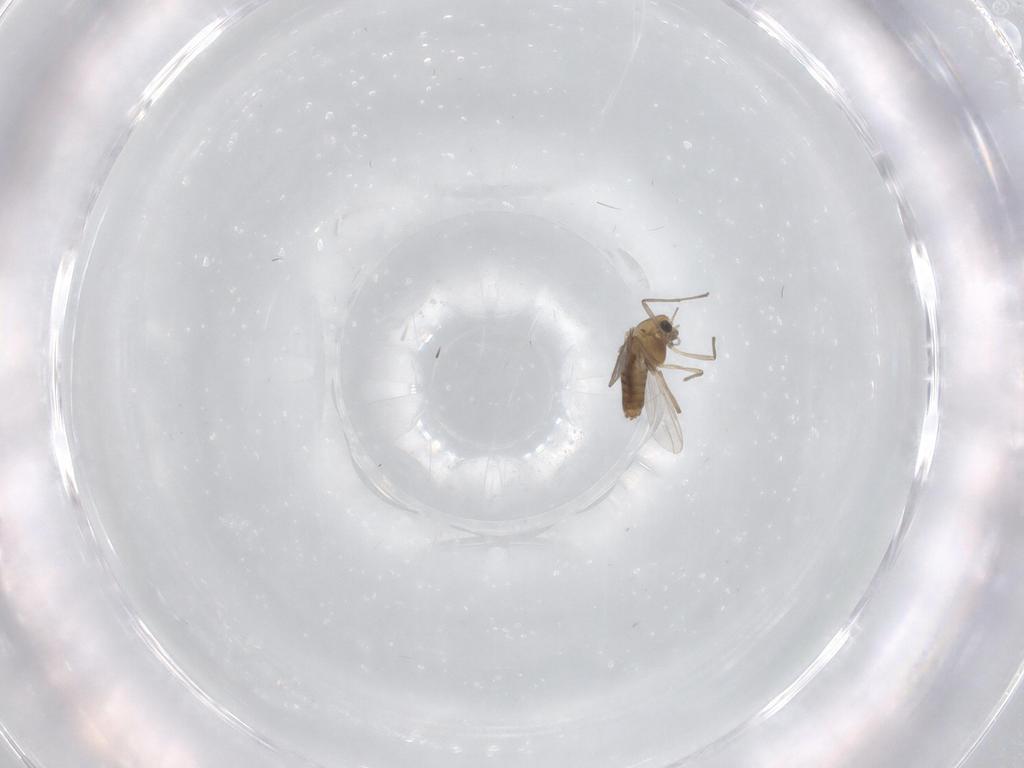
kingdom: Animalia
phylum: Arthropoda
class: Insecta
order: Diptera
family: Chironomidae
